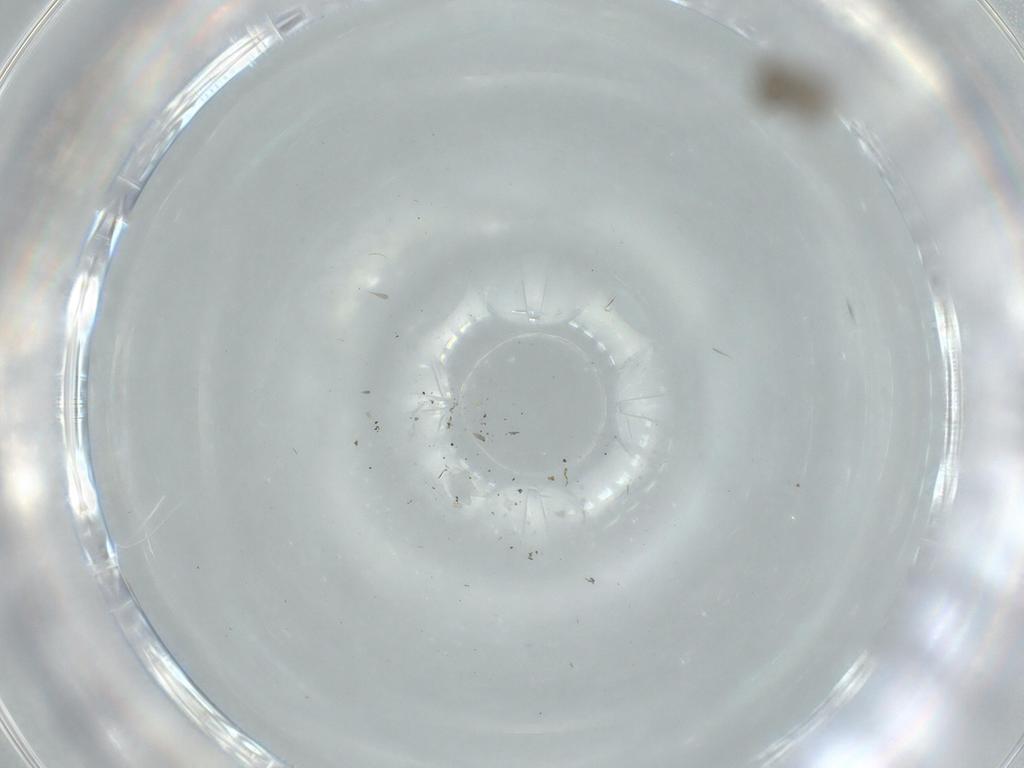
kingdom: Animalia
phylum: Arthropoda
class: Insecta
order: Diptera
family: Chironomidae
